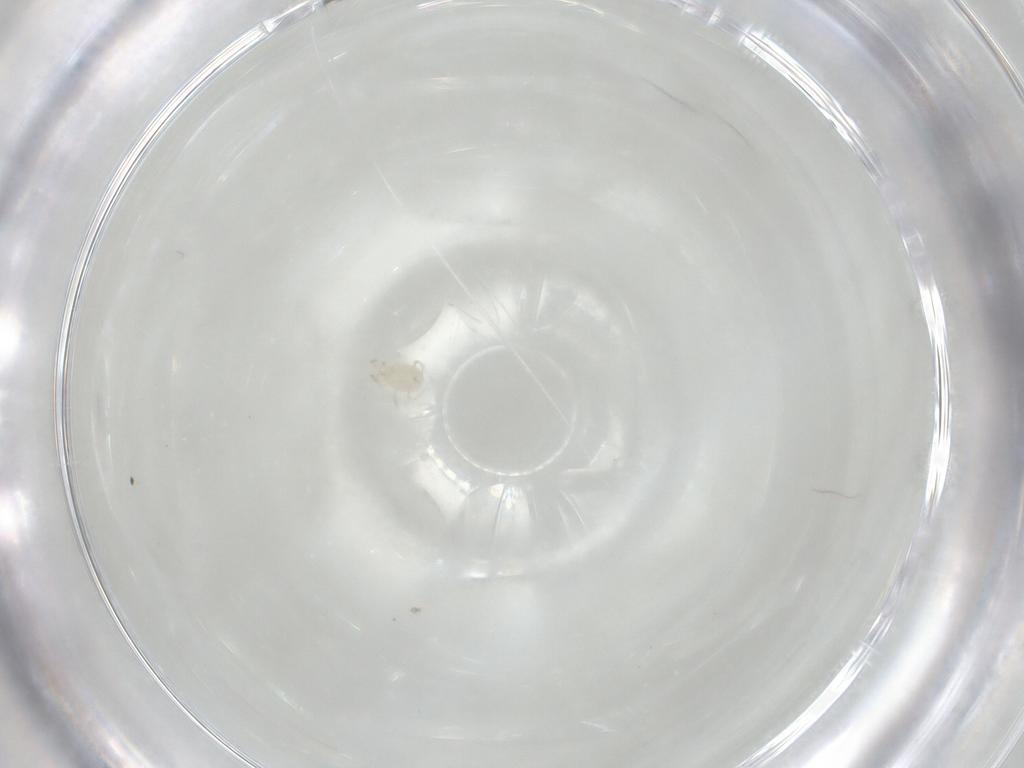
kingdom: Animalia
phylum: Arthropoda
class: Arachnida
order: Mesostigmata
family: Phytoseiidae
